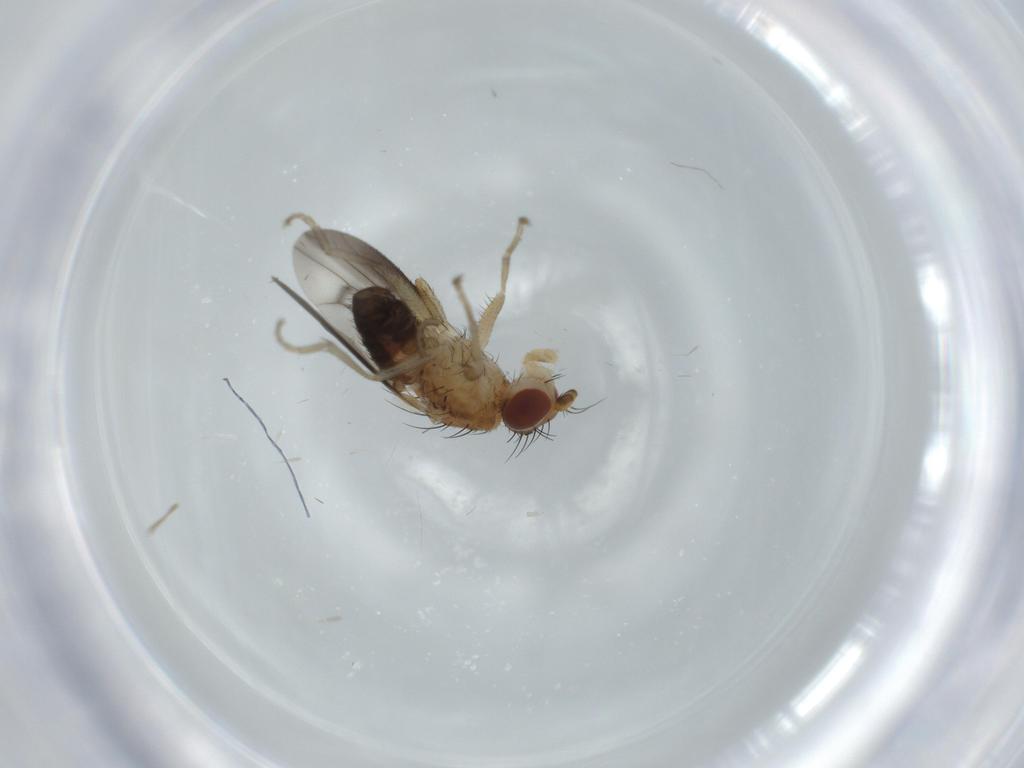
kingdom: Animalia
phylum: Arthropoda
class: Insecta
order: Diptera
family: Heleomyzidae
